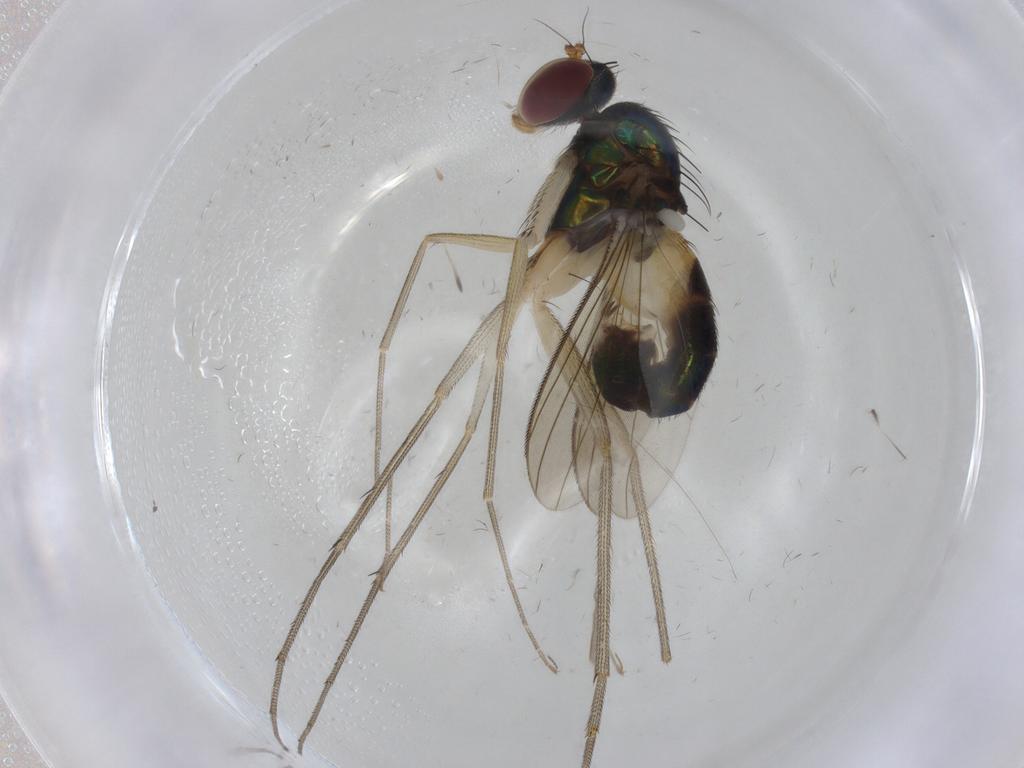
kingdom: Animalia
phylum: Arthropoda
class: Insecta
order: Diptera
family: Dolichopodidae
